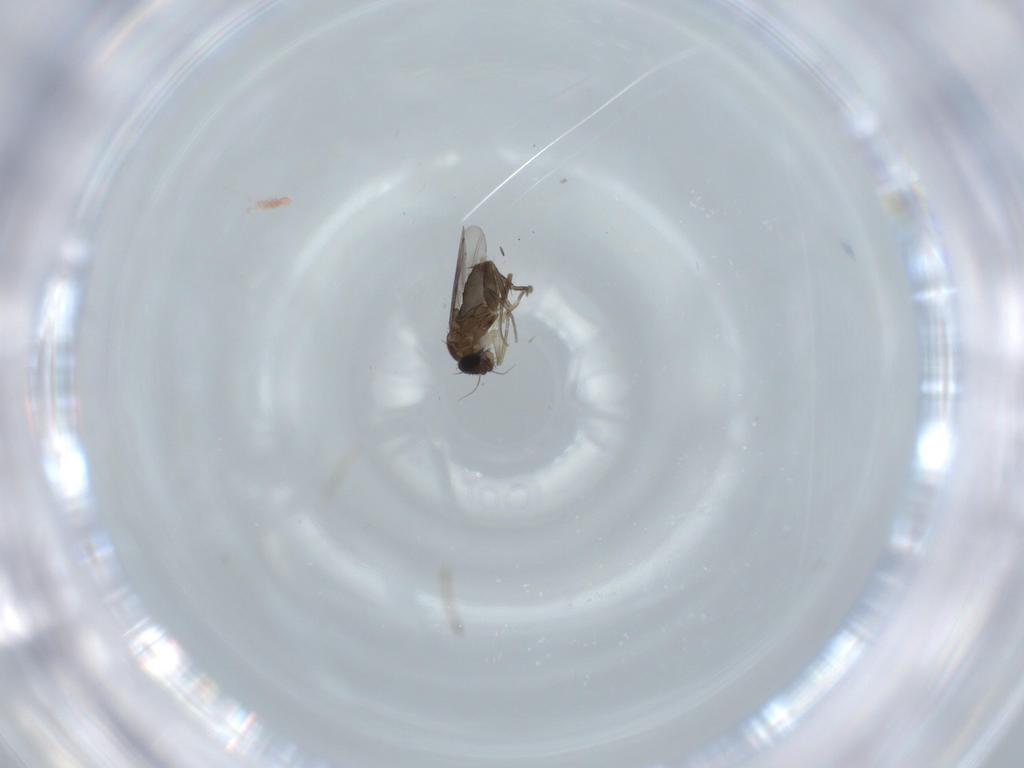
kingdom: Animalia
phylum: Arthropoda
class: Insecta
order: Diptera
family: Phoridae
